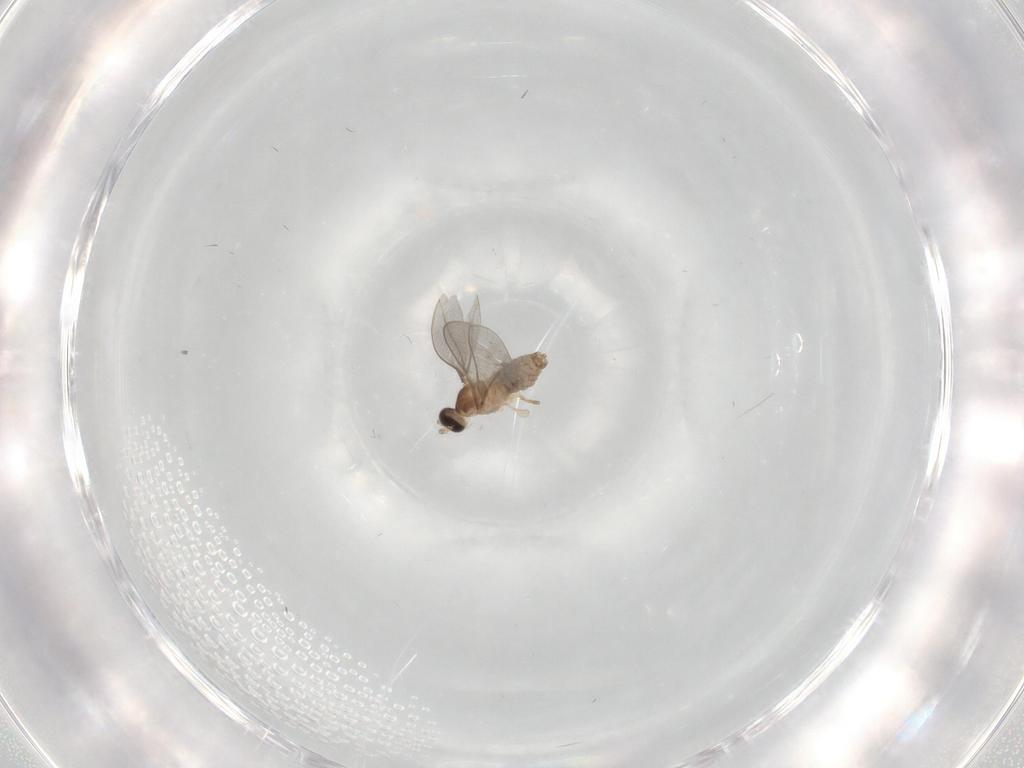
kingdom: Animalia
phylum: Arthropoda
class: Insecta
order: Diptera
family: Cecidomyiidae
